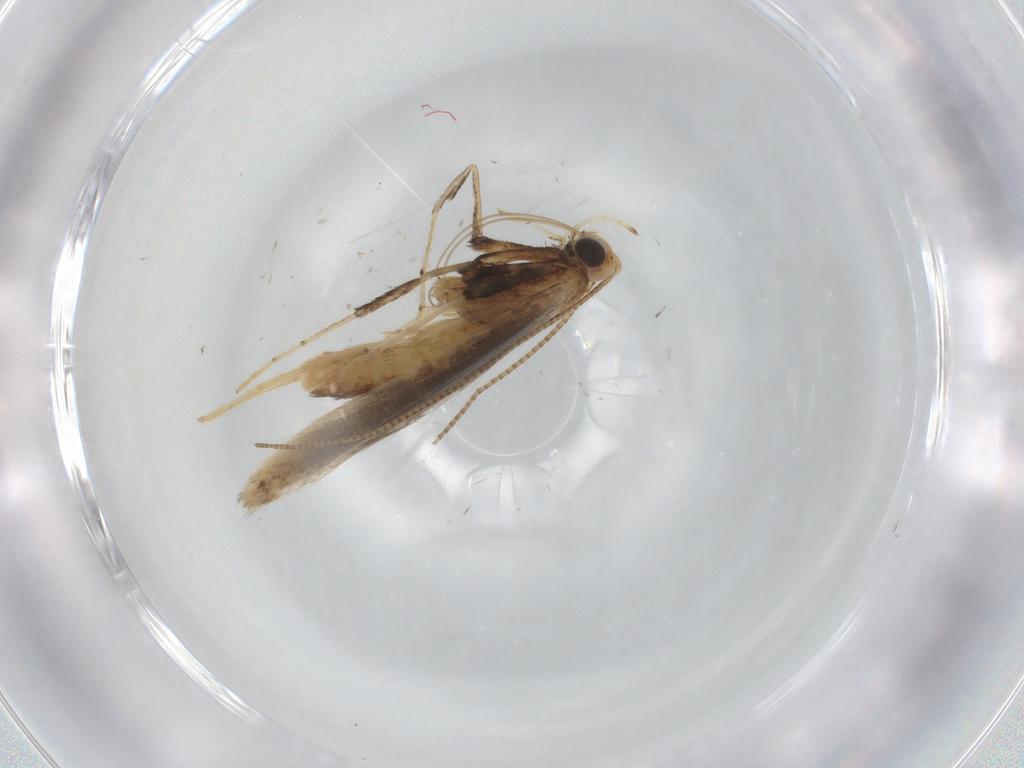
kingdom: Animalia
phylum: Arthropoda
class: Insecta
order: Lepidoptera
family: Gracillariidae
